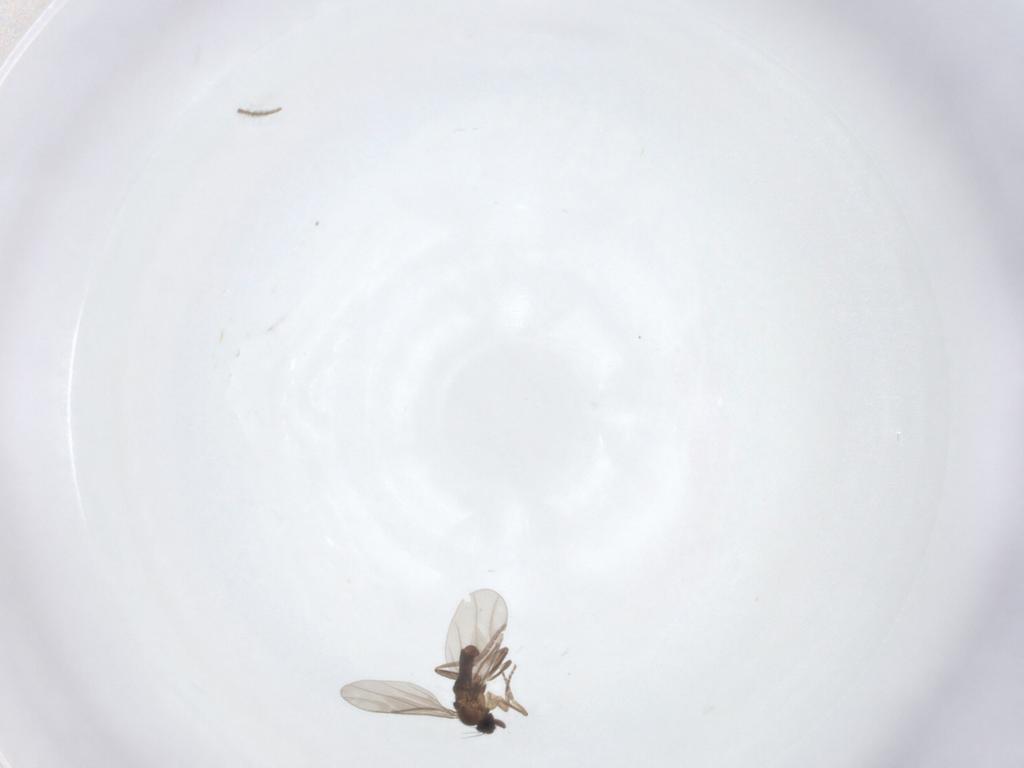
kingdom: Animalia
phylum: Arthropoda
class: Insecta
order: Diptera
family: Cecidomyiidae
